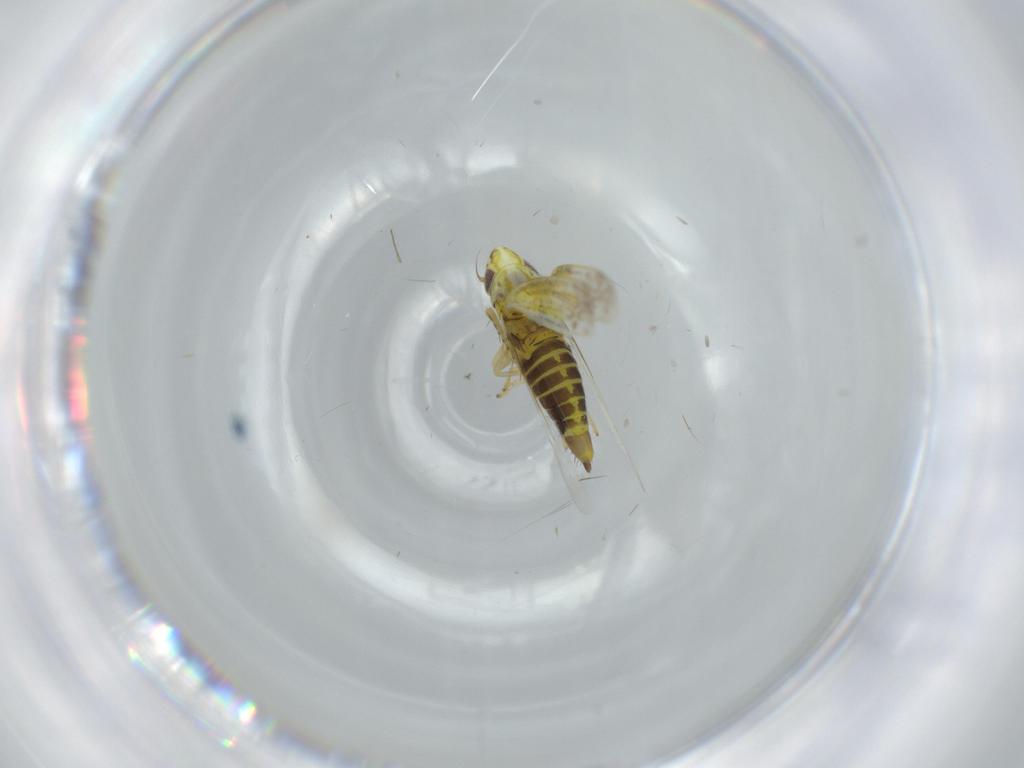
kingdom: Animalia
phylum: Arthropoda
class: Insecta
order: Psocodea
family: Lepidopsocidae
